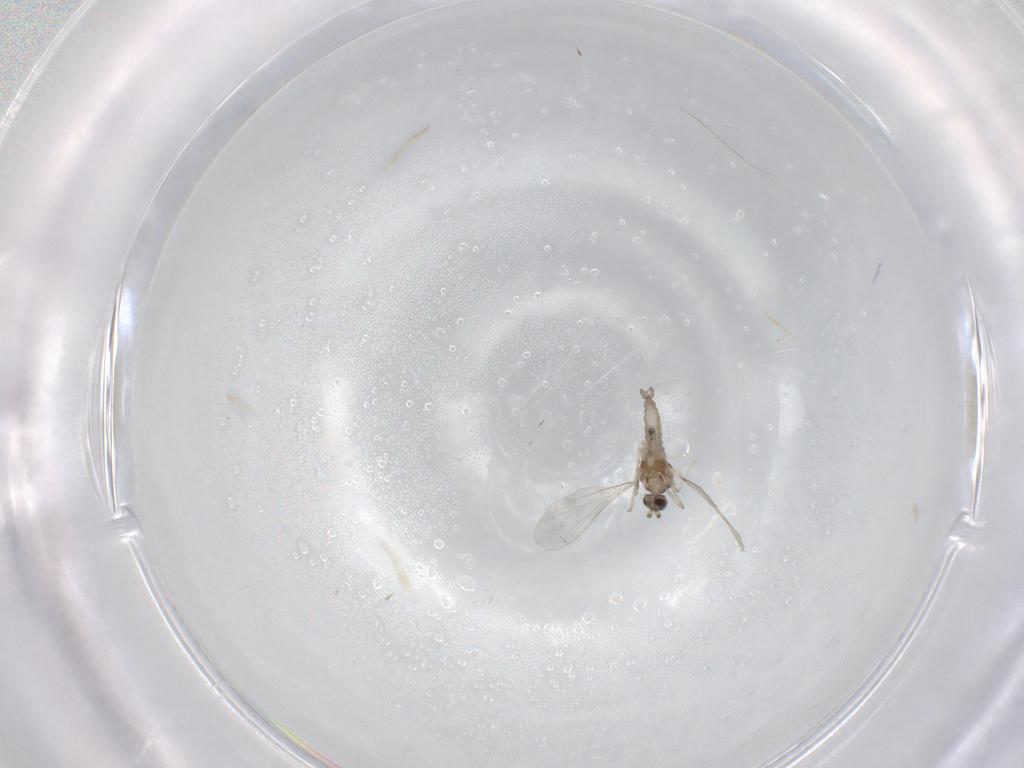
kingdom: Animalia
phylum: Arthropoda
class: Insecta
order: Diptera
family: Cecidomyiidae
